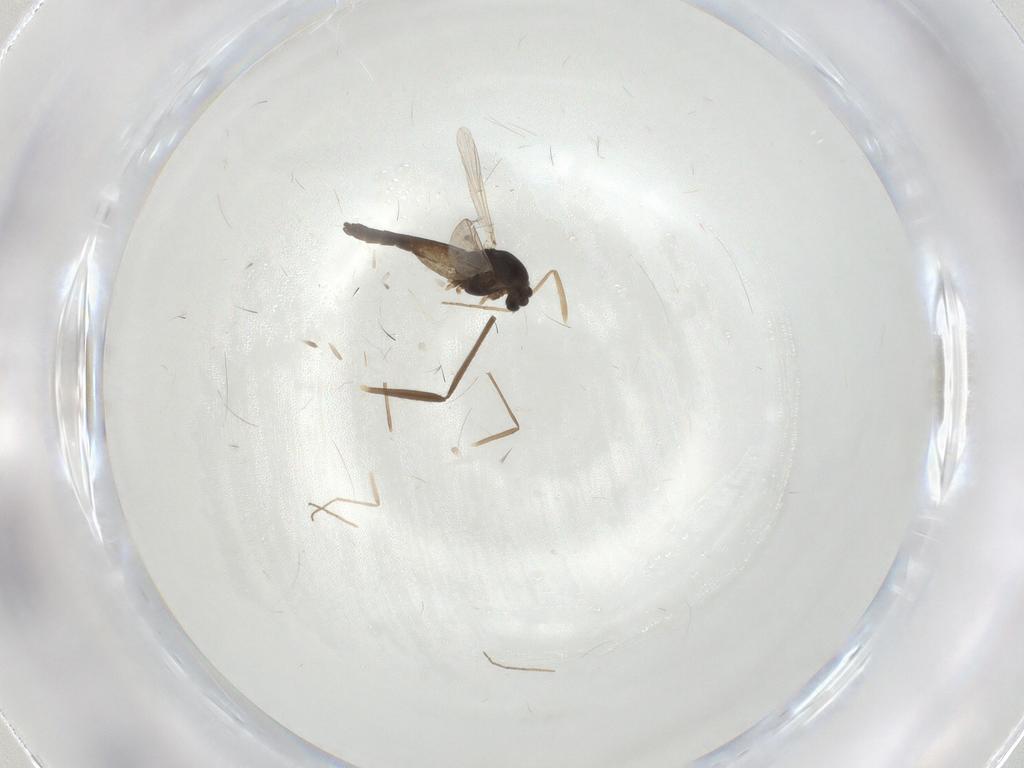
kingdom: Animalia
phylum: Arthropoda
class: Insecta
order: Diptera
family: Chironomidae
